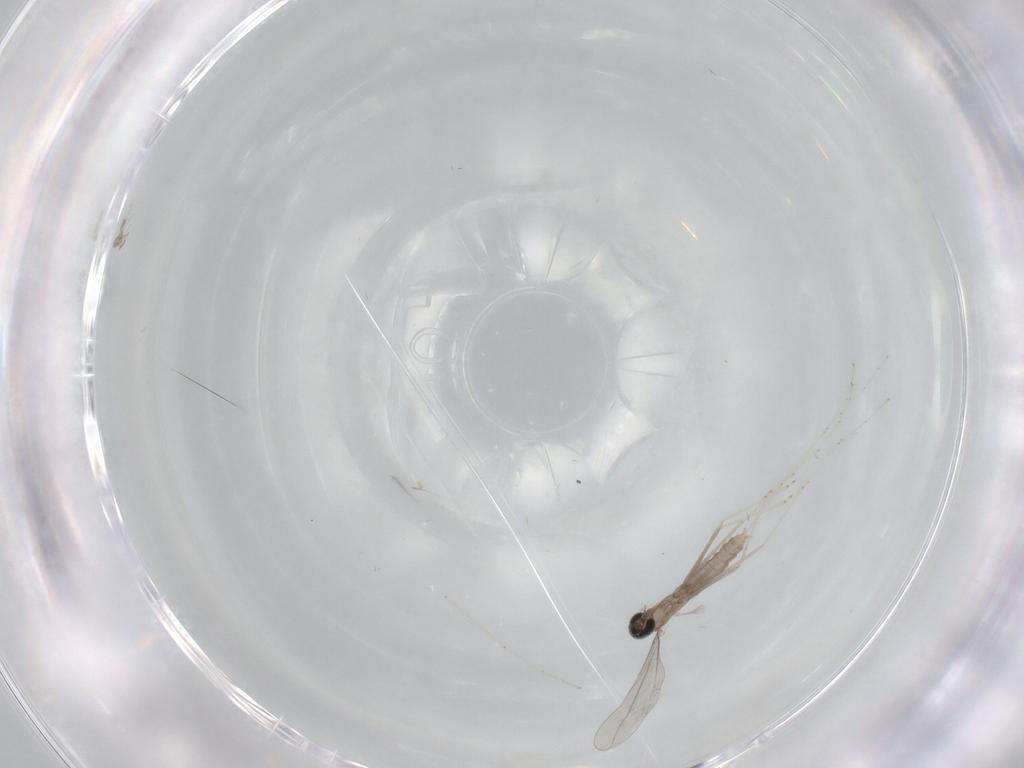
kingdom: Animalia
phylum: Arthropoda
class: Insecta
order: Diptera
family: Cecidomyiidae
